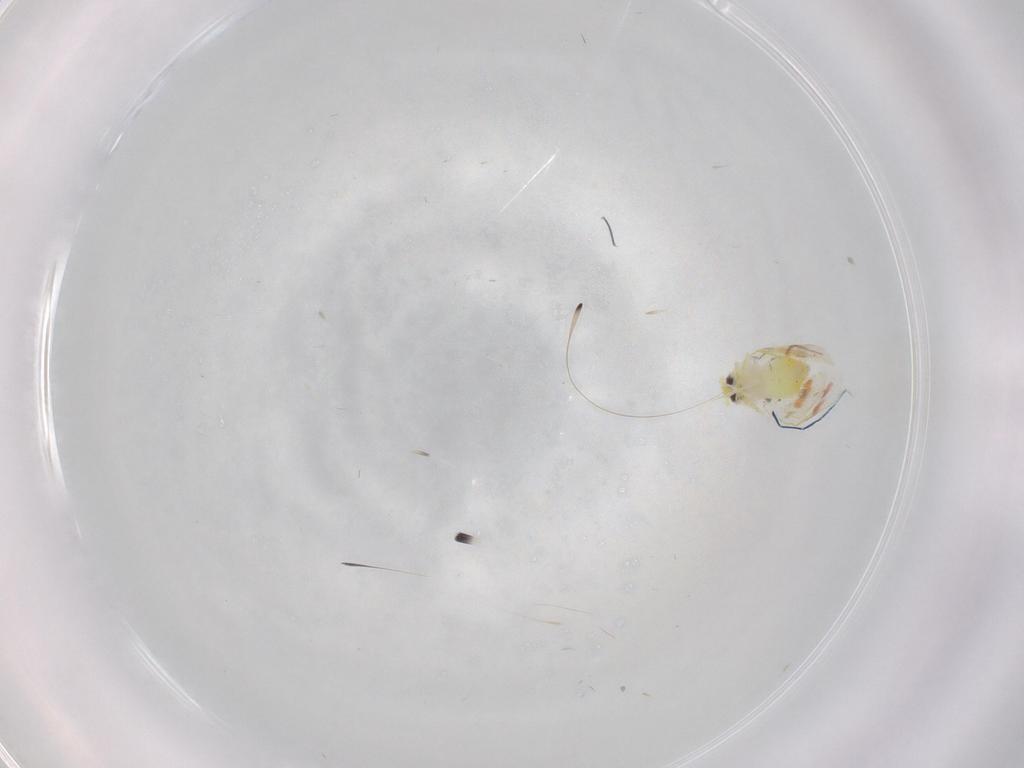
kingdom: Animalia
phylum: Arthropoda
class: Insecta
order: Hemiptera
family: Aleyrodidae
